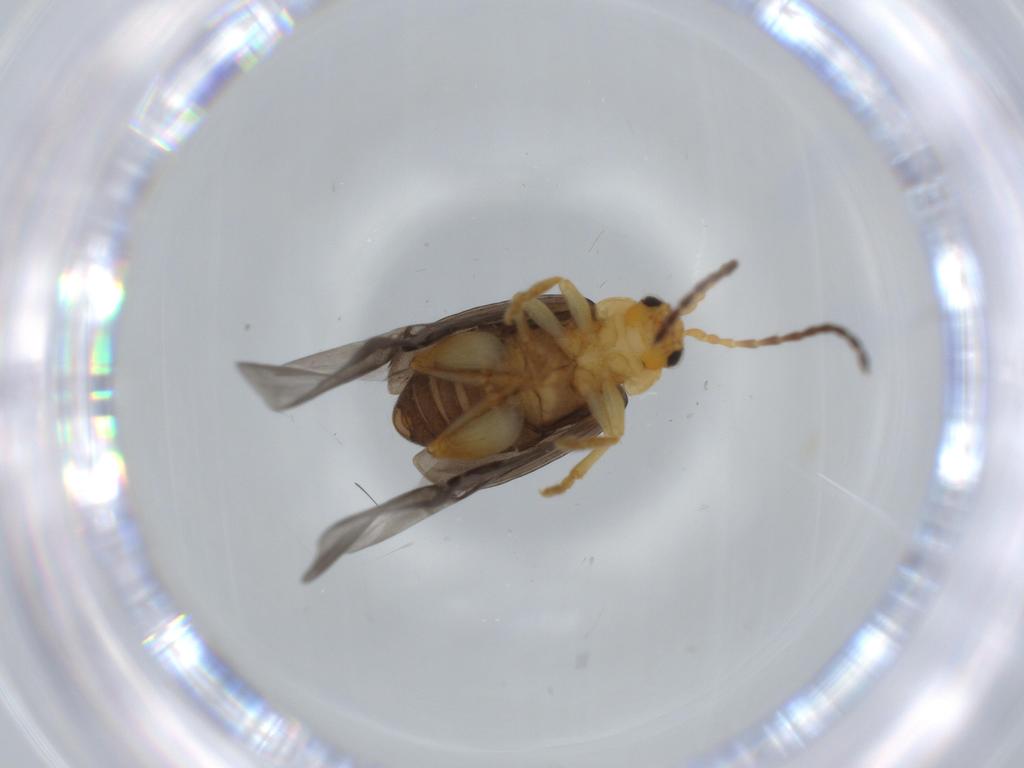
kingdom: Animalia
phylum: Arthropoda
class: Insecta
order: Coleoptera
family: Chrysomelidae
